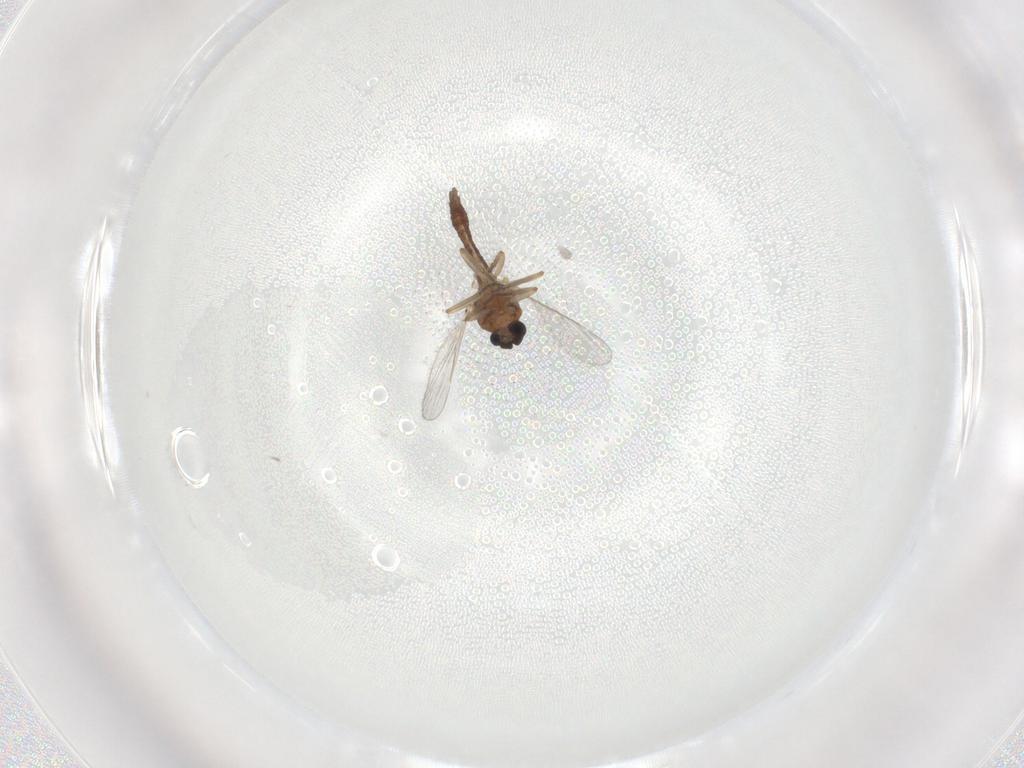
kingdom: Animalia
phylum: Arthropoda
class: Insecta
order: Diptera
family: Ceratopogonidae
